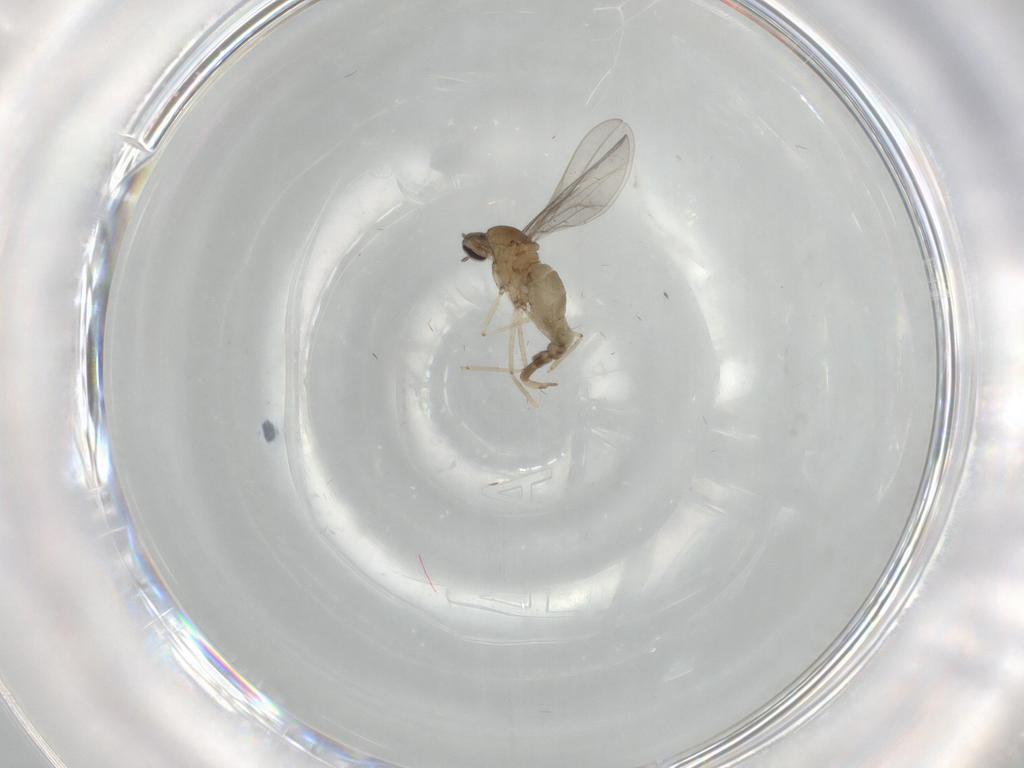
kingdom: Animalia
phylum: Arthropoda
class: Insecta
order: Diptera
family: Cecidomyiidae
